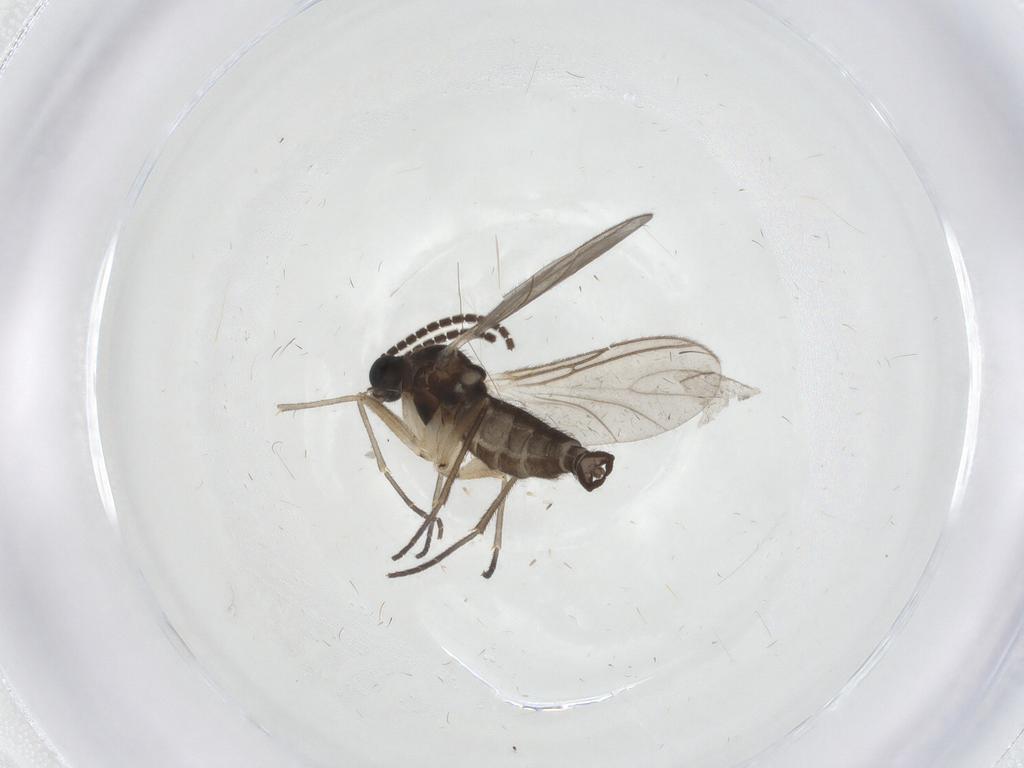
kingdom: Animalia
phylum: Arthropoda
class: Insecta
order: Diptera
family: Sciaridae
